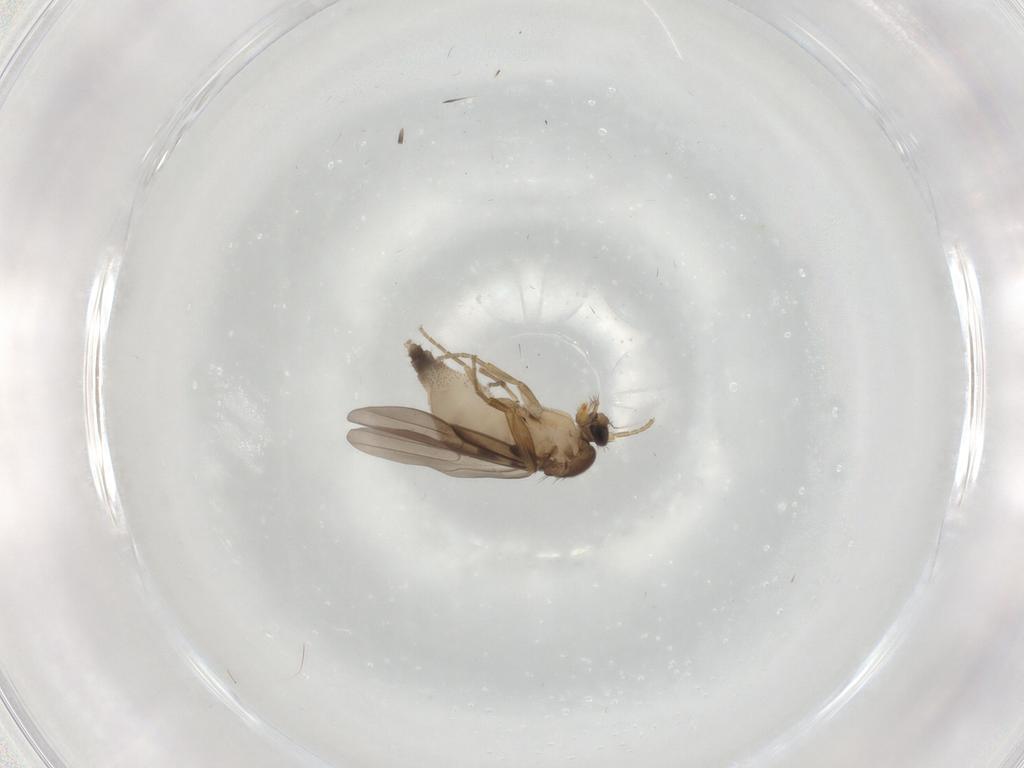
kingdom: Animalia
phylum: Arthropoda
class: Insecta
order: Diptera
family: Phoridae
